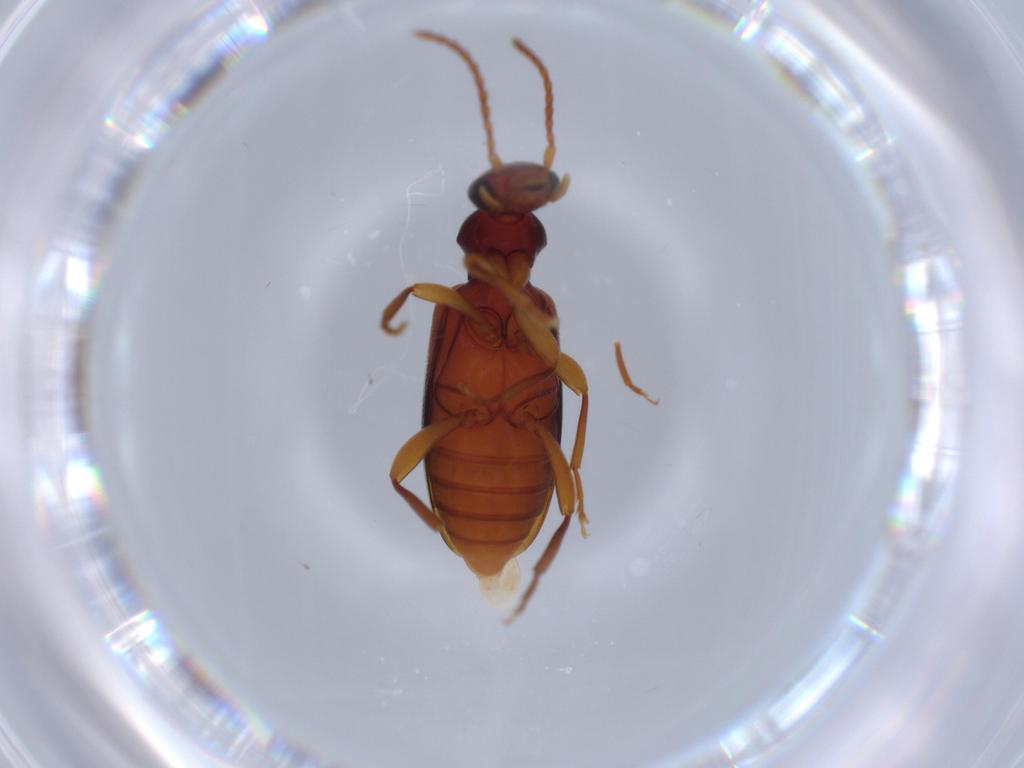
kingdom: Animalia
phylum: Arthropoda
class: Insecta
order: Coleoptera
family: Anthicidae
